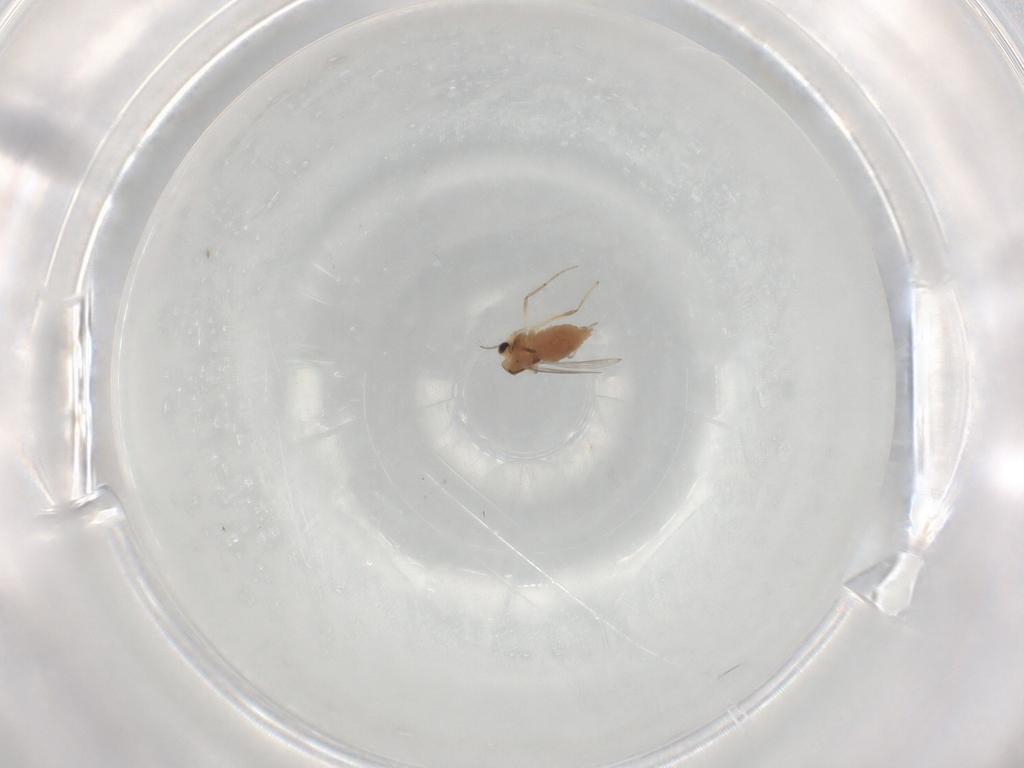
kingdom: Animalia
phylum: Arthropoda
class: Insecta
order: Diptera
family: Chironomidae
